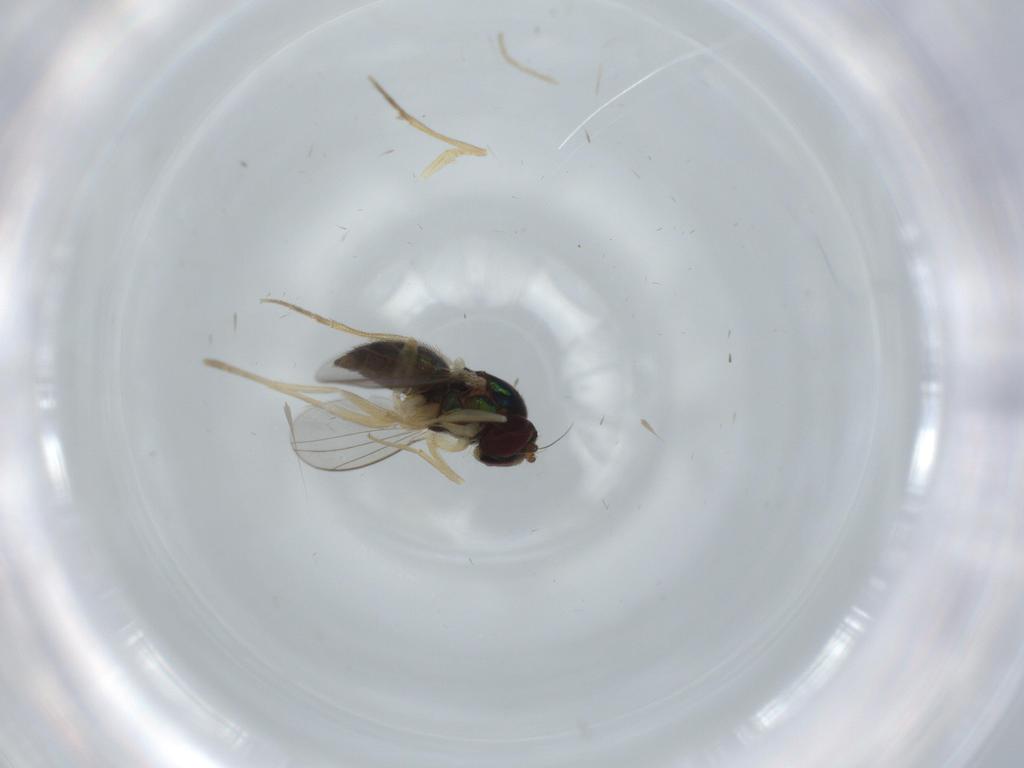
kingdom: Animalia
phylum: Arthropoda
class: Insecta
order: Diptera
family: Dolichopodidae
